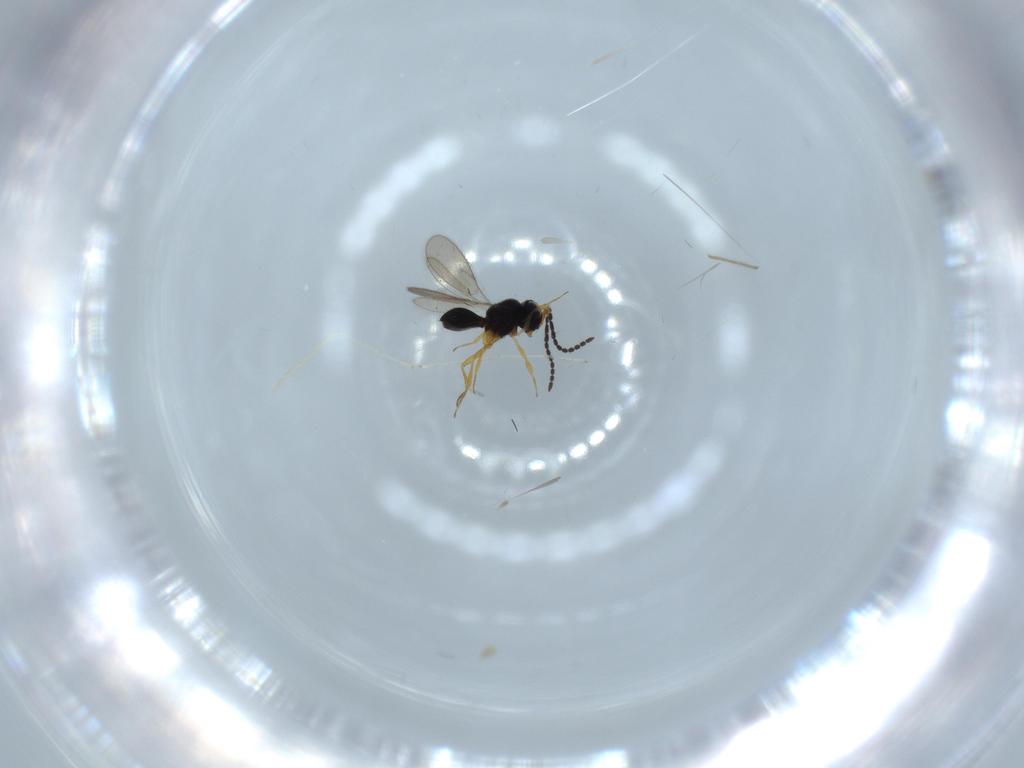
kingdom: Animalia
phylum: Arthropoda
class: Insecta
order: Hymenoptera
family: Scelionidae
